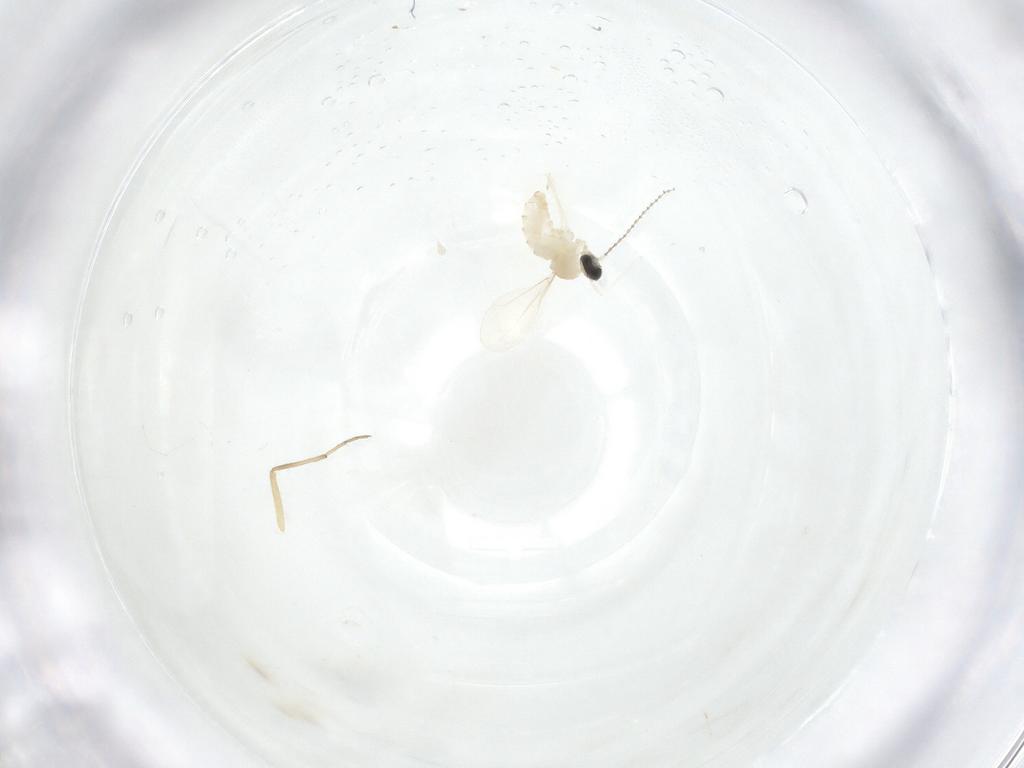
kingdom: Animalia
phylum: Arthropoda
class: Insecta
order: Diptera
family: Cecidomyiidae
